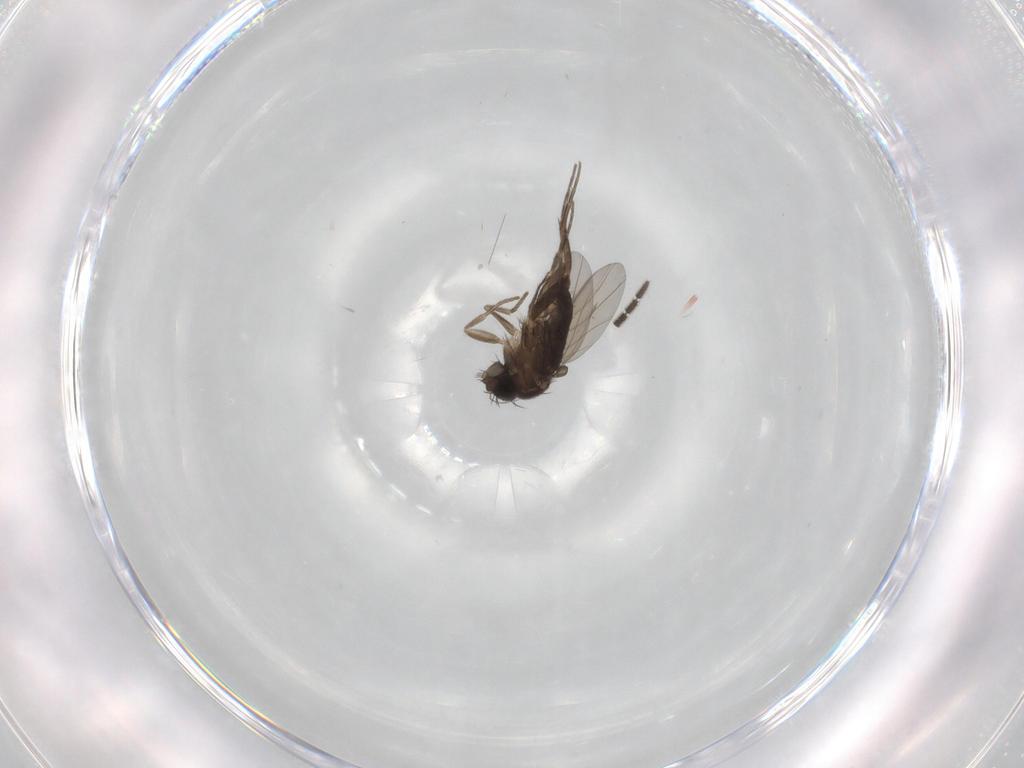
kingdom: Animalia
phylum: Arthropoda
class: Insecta
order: Diptera
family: Phoridae
